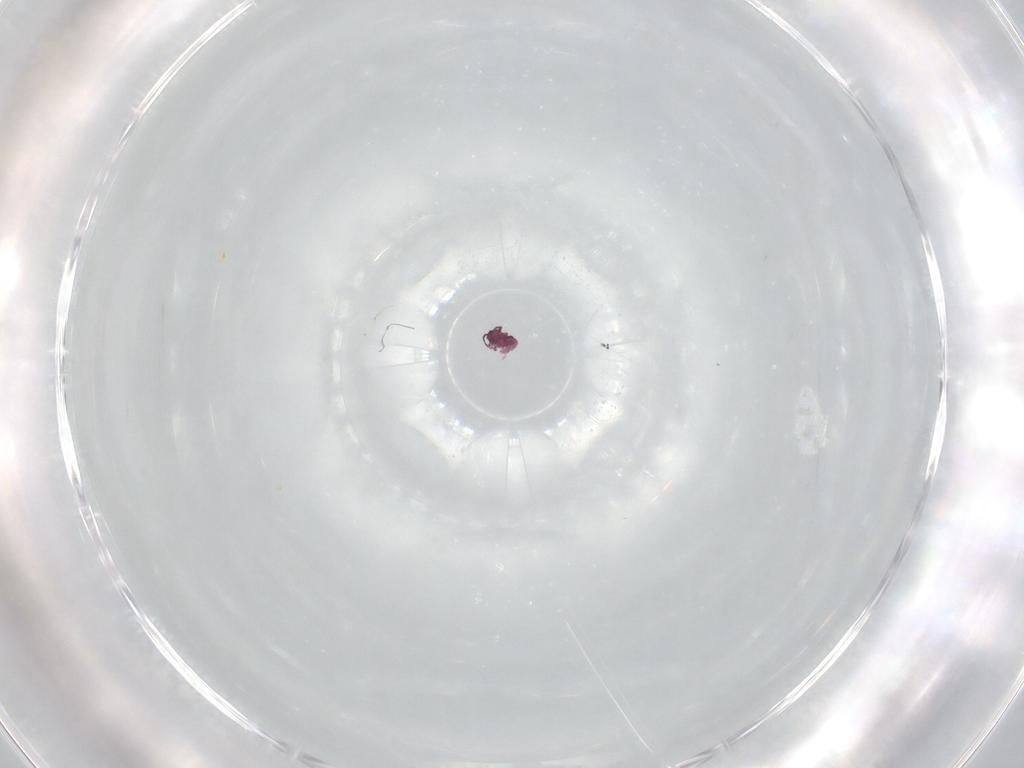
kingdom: Animalia
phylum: Arthropoda
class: Collembola
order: Symphypleona
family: Sminthurididae
